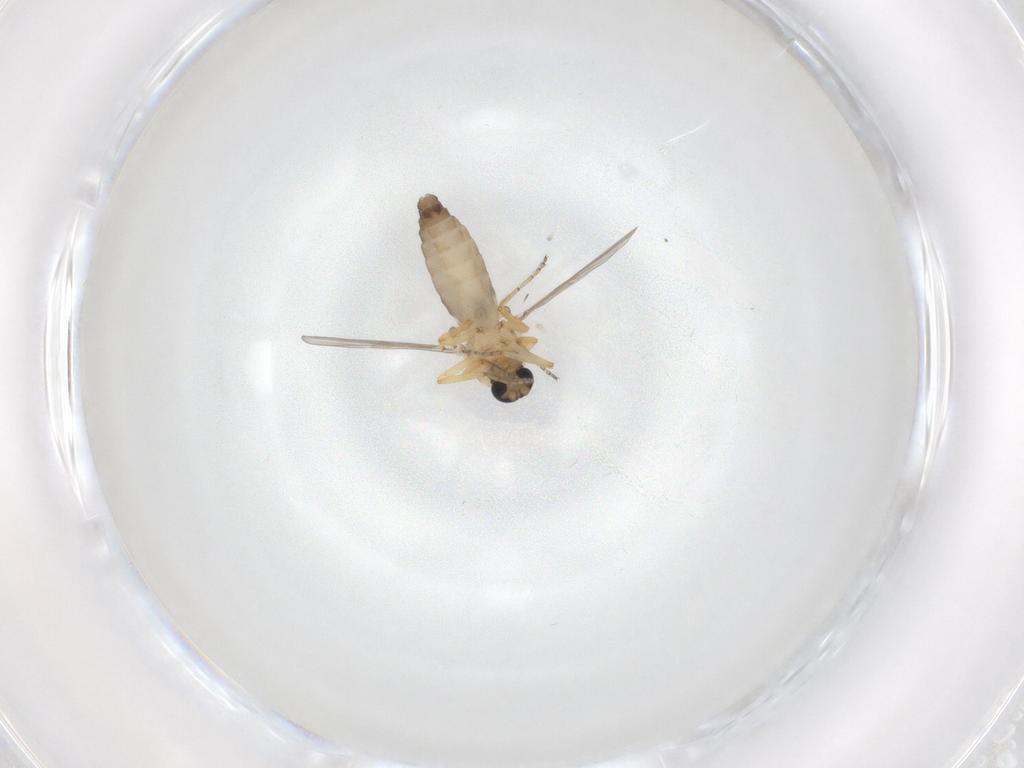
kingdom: Animalia
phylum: Arthropoda
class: Insecta
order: Diptera
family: Ceratopogonidae
